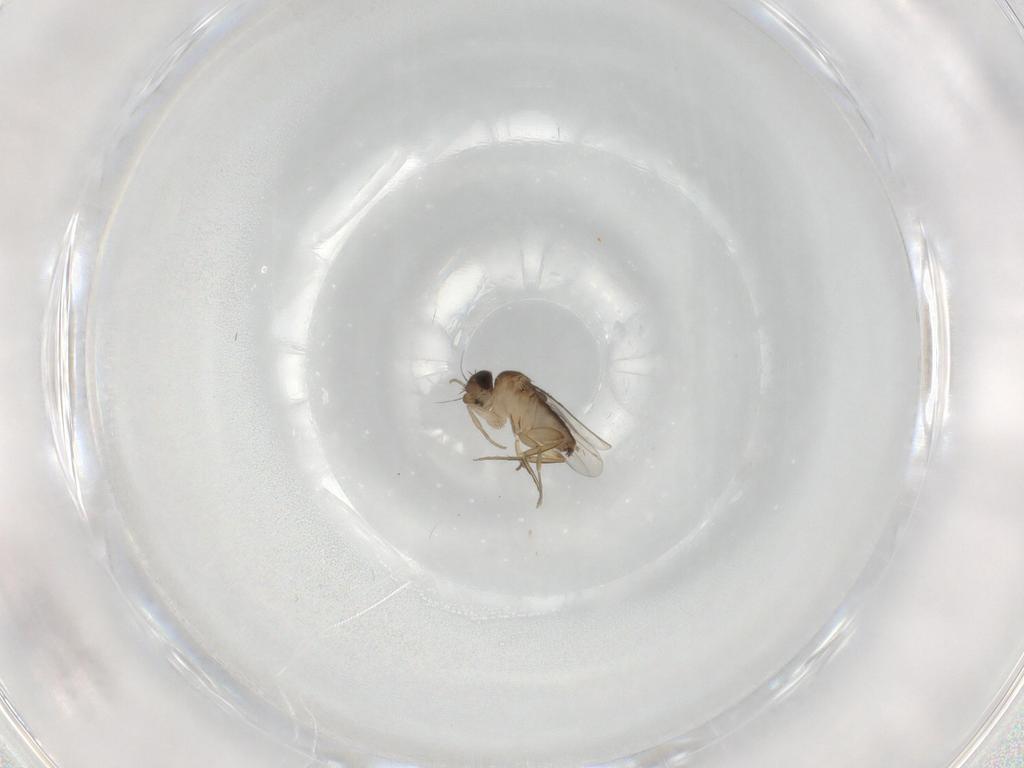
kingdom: Animalia
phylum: Arthropoda
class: Insecta
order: Diptera
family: Phoridae
